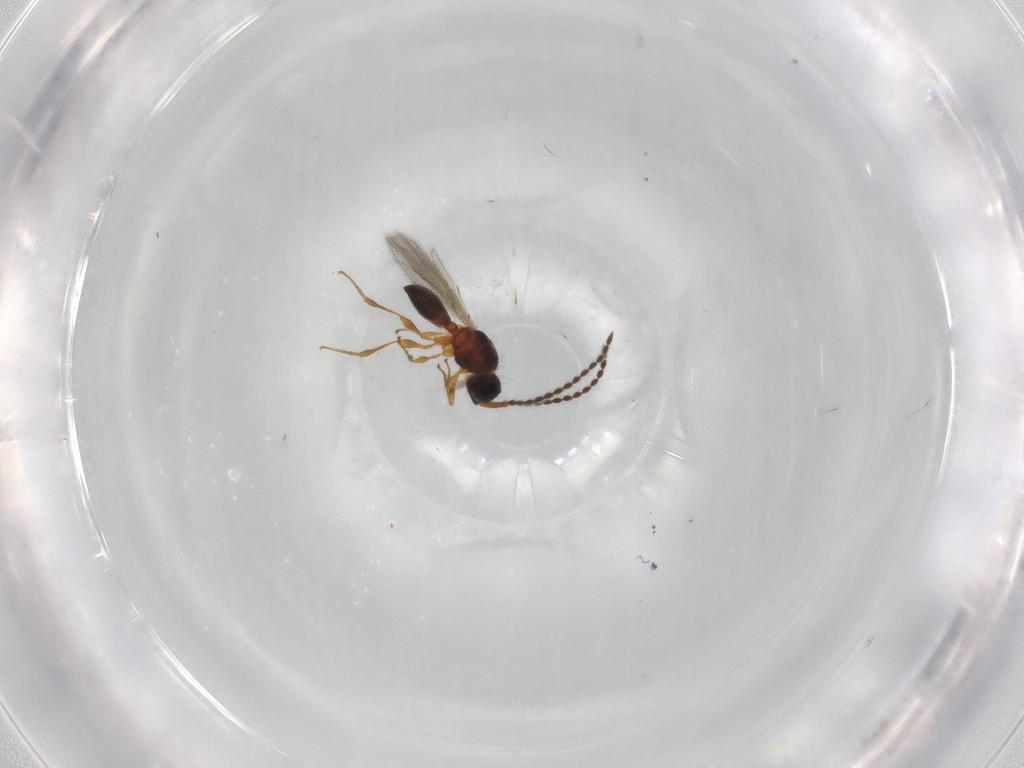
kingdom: Animalia
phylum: Arthropoda
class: Insecta
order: Hymenoptera
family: Diapriidae
